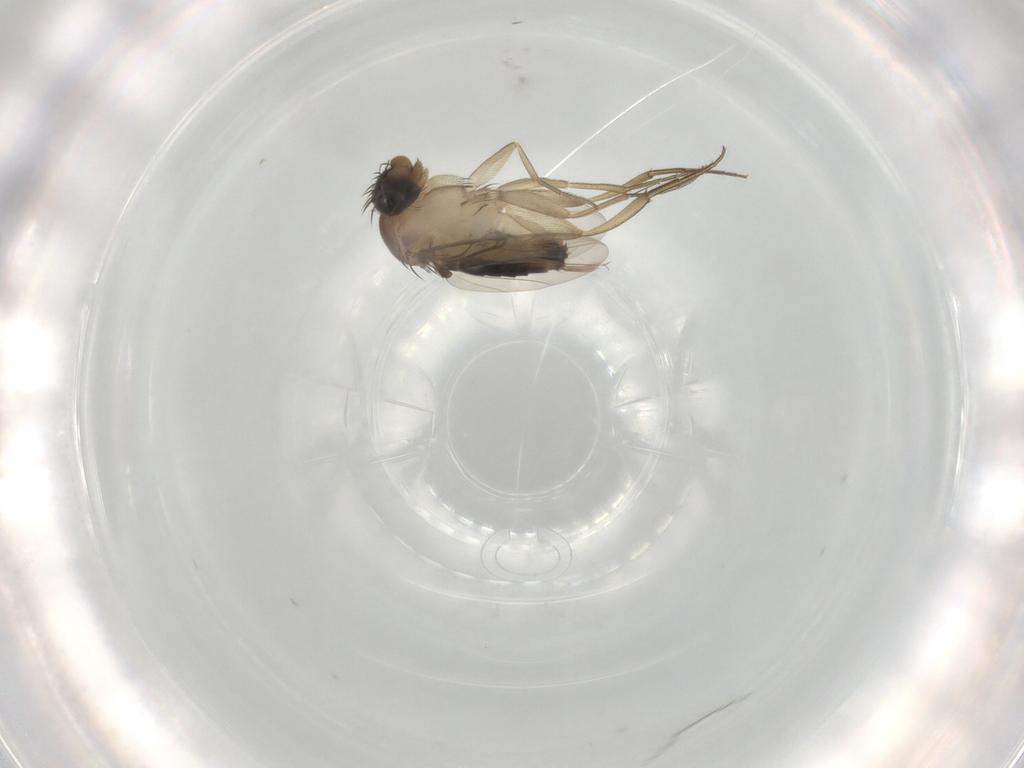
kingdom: Animalia
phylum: Arthropoda
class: Insecta
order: Diptera
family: Phoridae
